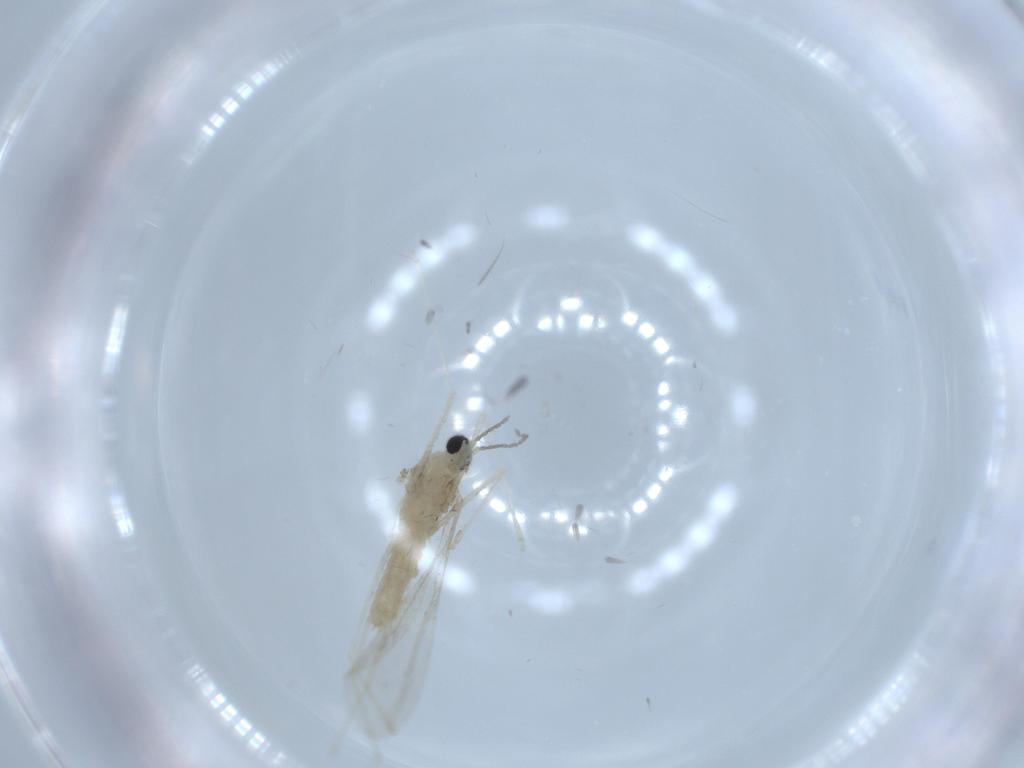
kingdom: Animalia
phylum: Arthropoda
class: Insecta
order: Diptera
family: Cecidomyiidae
